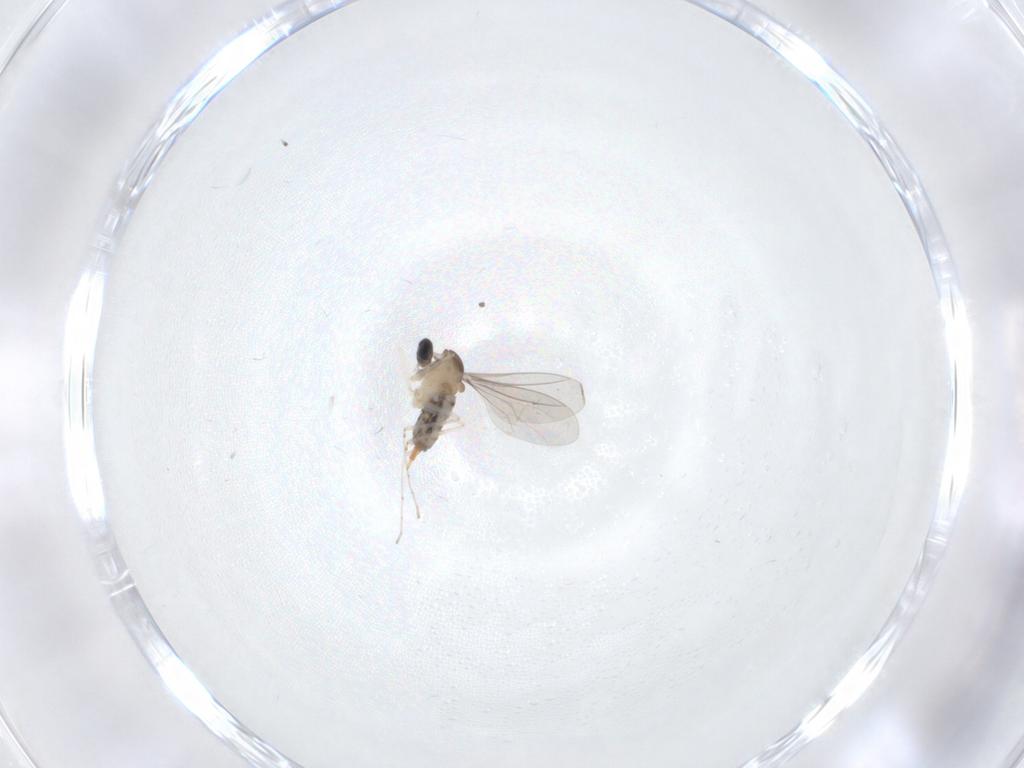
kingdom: Animalia
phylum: Arthropoda
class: Insecta
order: Diptera
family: Cecidomyiidae
